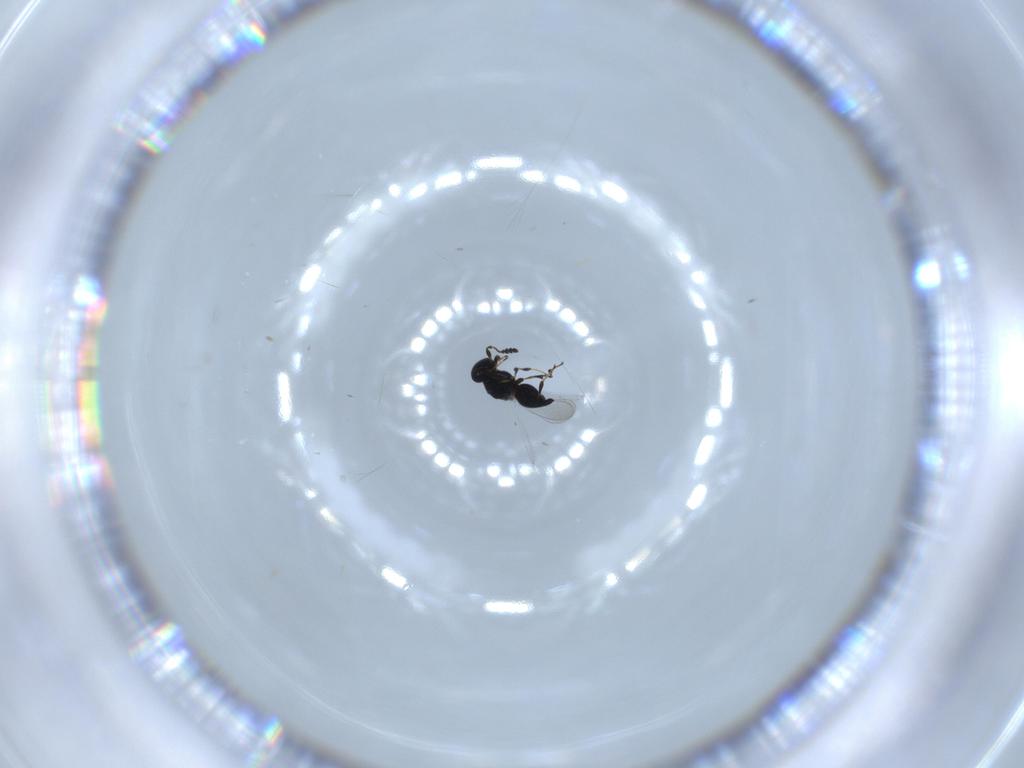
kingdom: Animalia
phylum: Arthropoda
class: Insecta
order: Hymenoptera
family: Platygastridae
